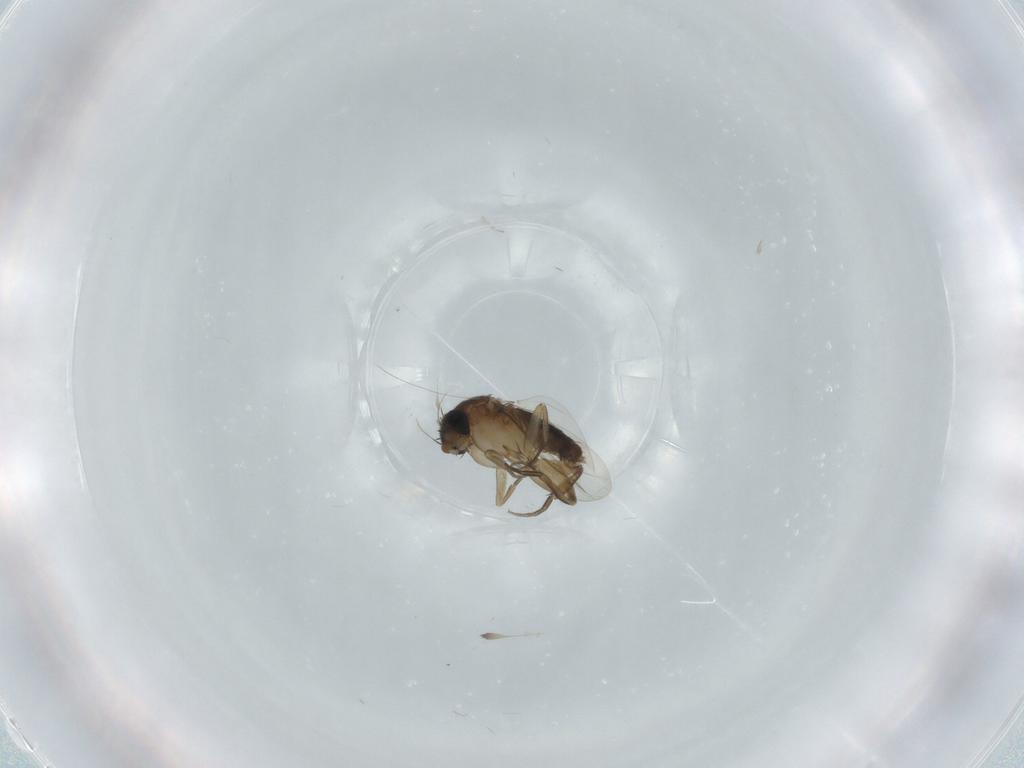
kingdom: Animalia
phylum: Arthropoda
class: Insecta
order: Diptera
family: Phoridae
